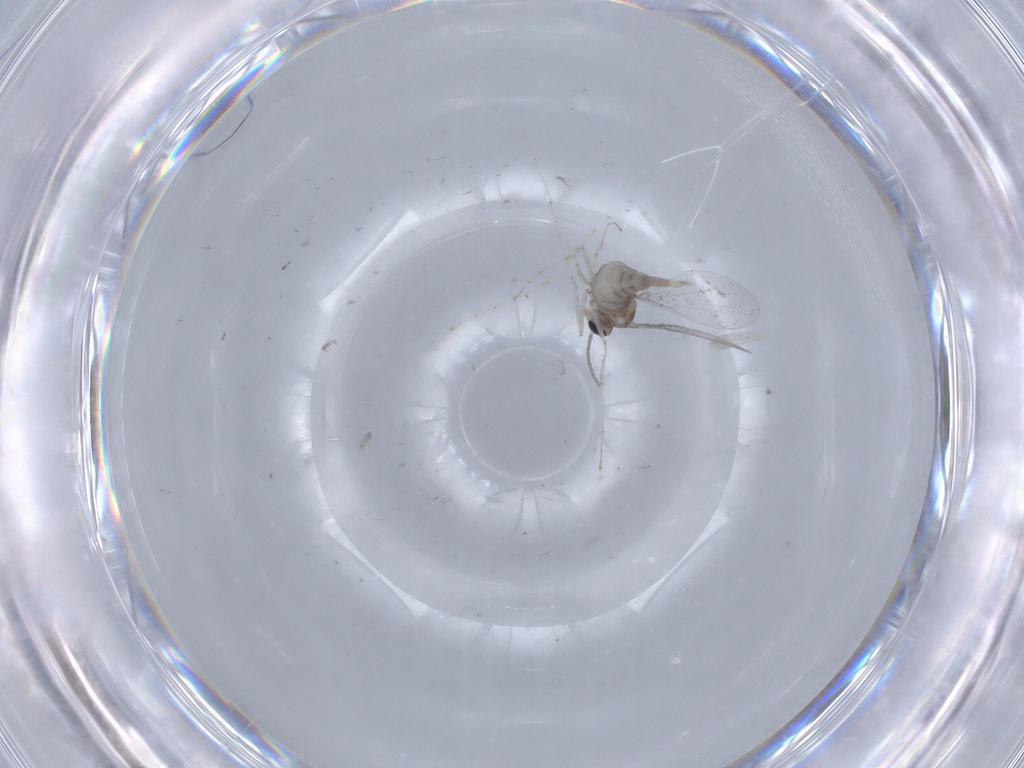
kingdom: Animalia
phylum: Arthropoda
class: Insecta
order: Diptera
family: Cecidomyiidae
